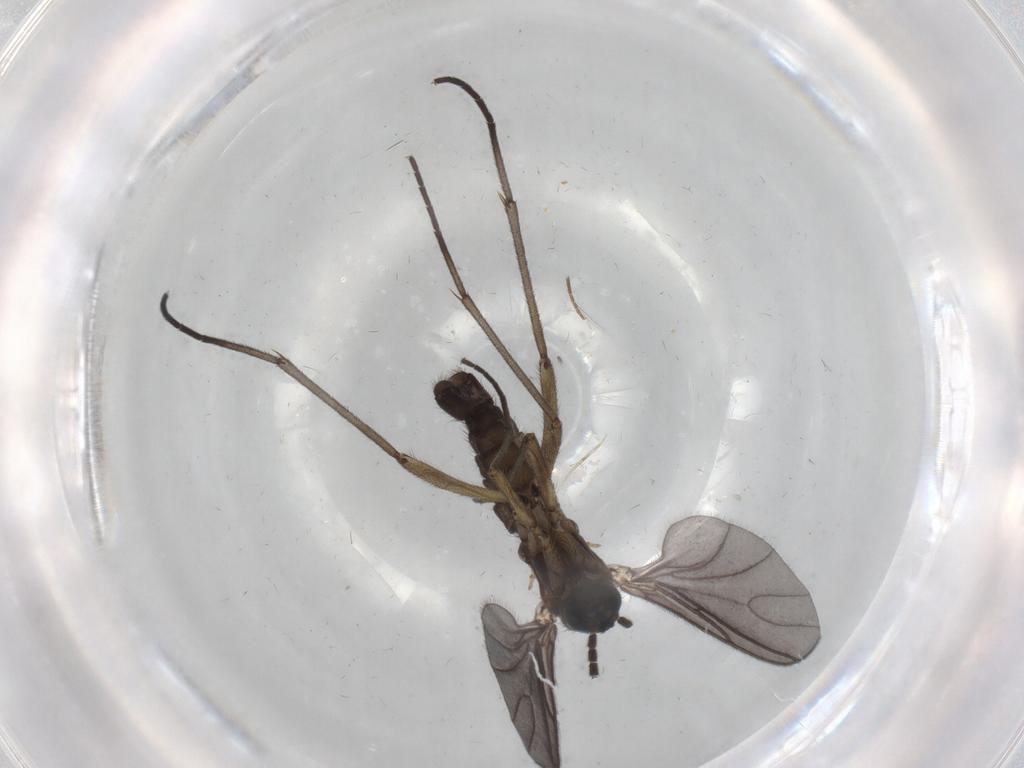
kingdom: Animalia
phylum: Arthropoda
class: Insecta
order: Diptera
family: Sciaridae
